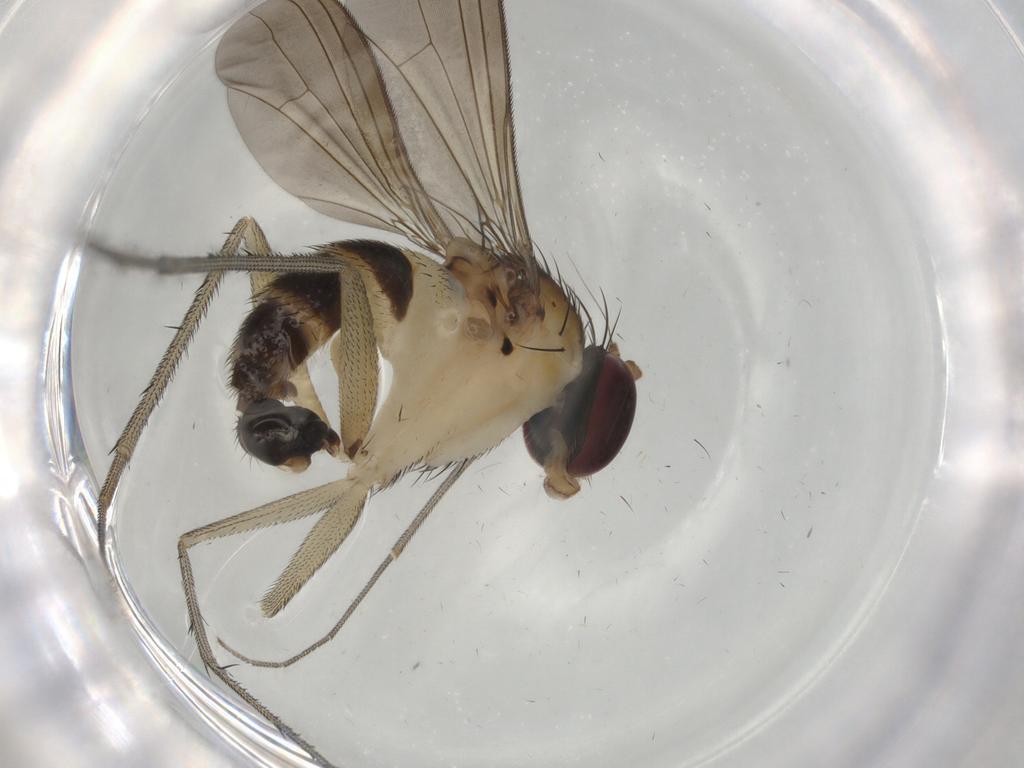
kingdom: Animalia
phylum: Arthropoda
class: Insecta
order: Diptera
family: Dolichopodidae
